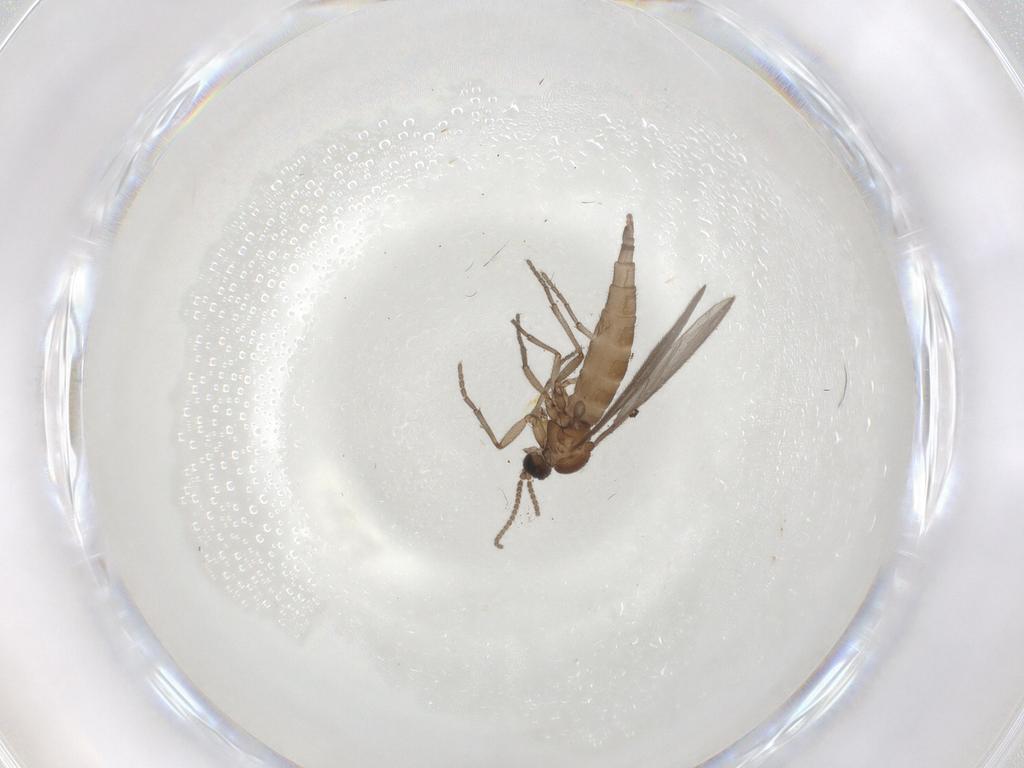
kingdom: Animalia
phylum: Arthropoda
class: Insecta
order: Diptera
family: Sciaridae
